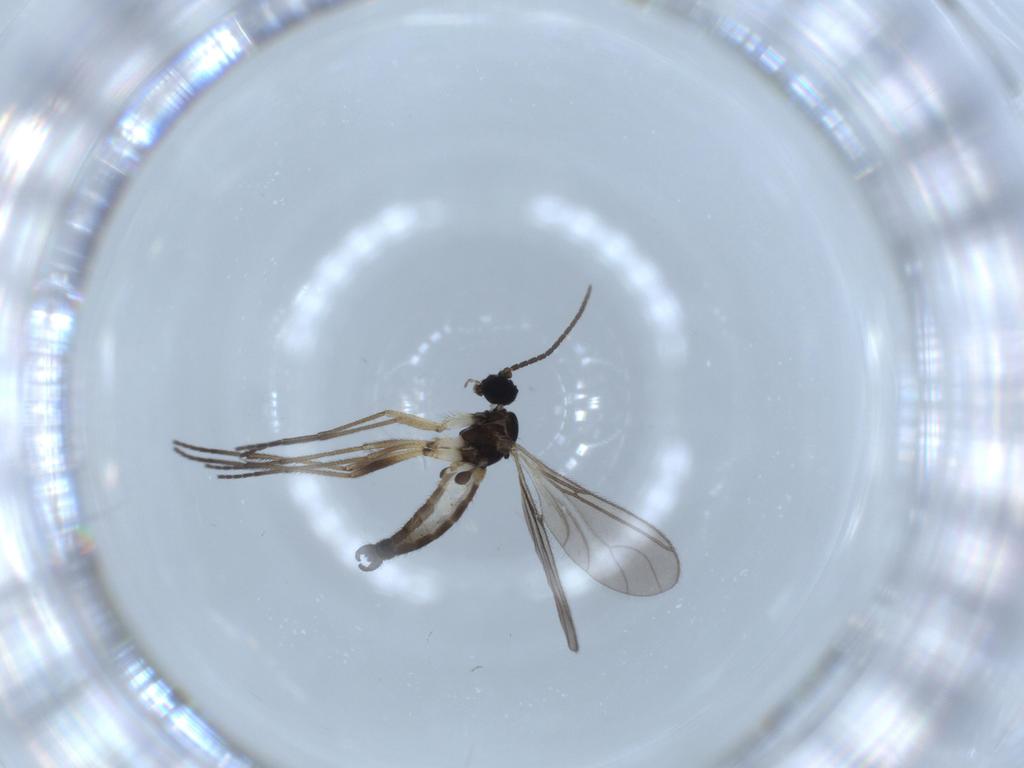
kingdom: Animalia
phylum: Arthropoda
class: Insecta
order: Diptera
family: Sciaridae
